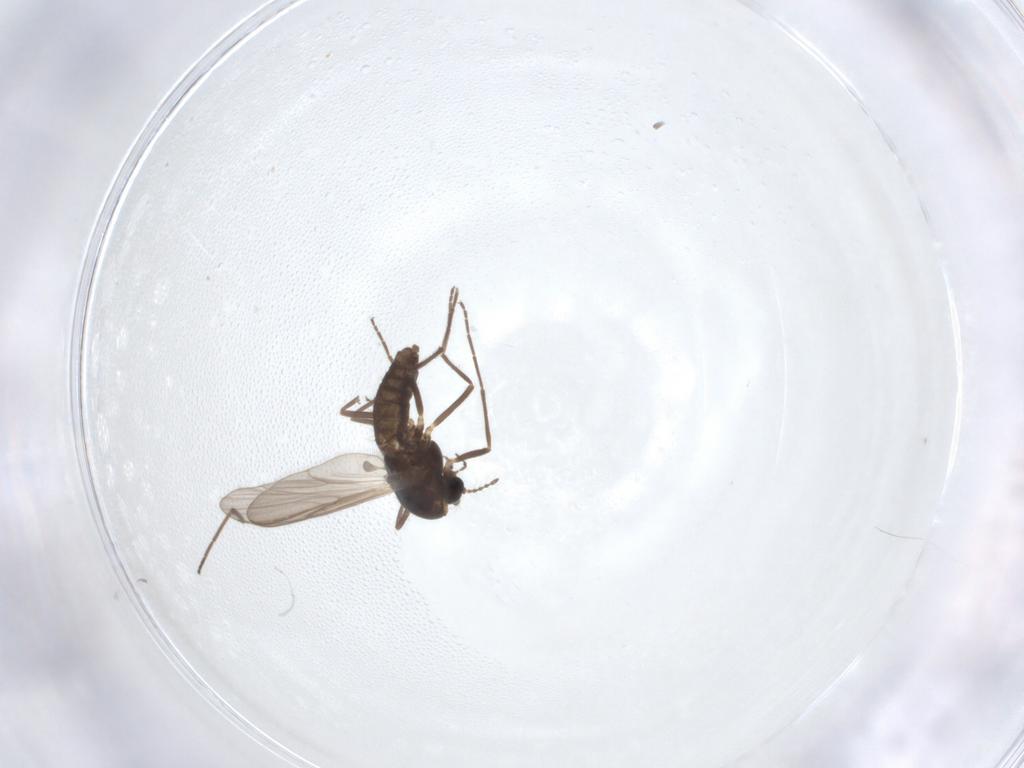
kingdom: Animalia
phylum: Arthropoda
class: Insecta
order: Diptera
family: Chironomidae
